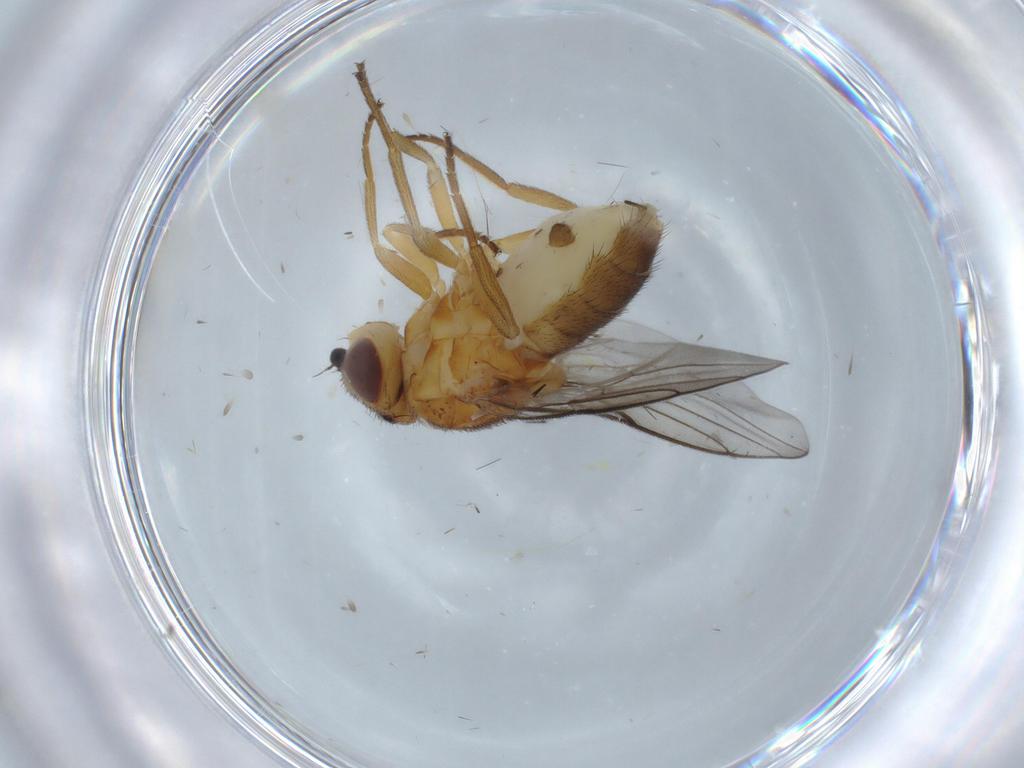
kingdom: Animalia
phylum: Arthropoda
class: Insecta
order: Diptera
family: Chloropidae
